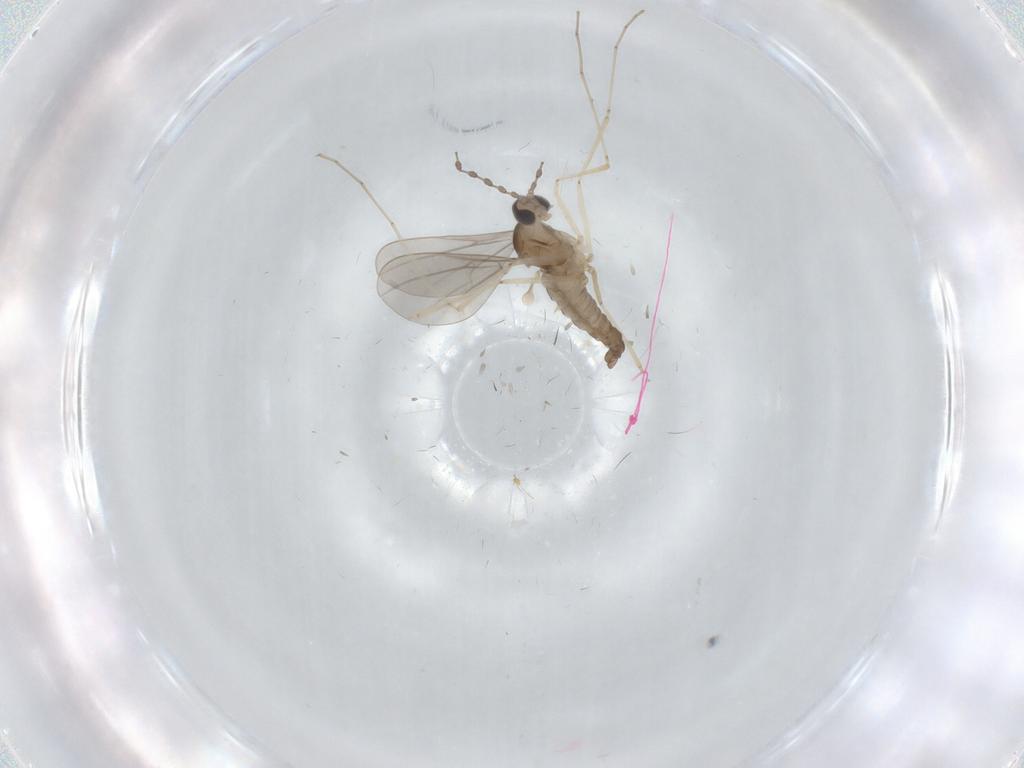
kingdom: Animalia
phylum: Arthropoda
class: Insecta
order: Diptera
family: Cecidomyiidae
